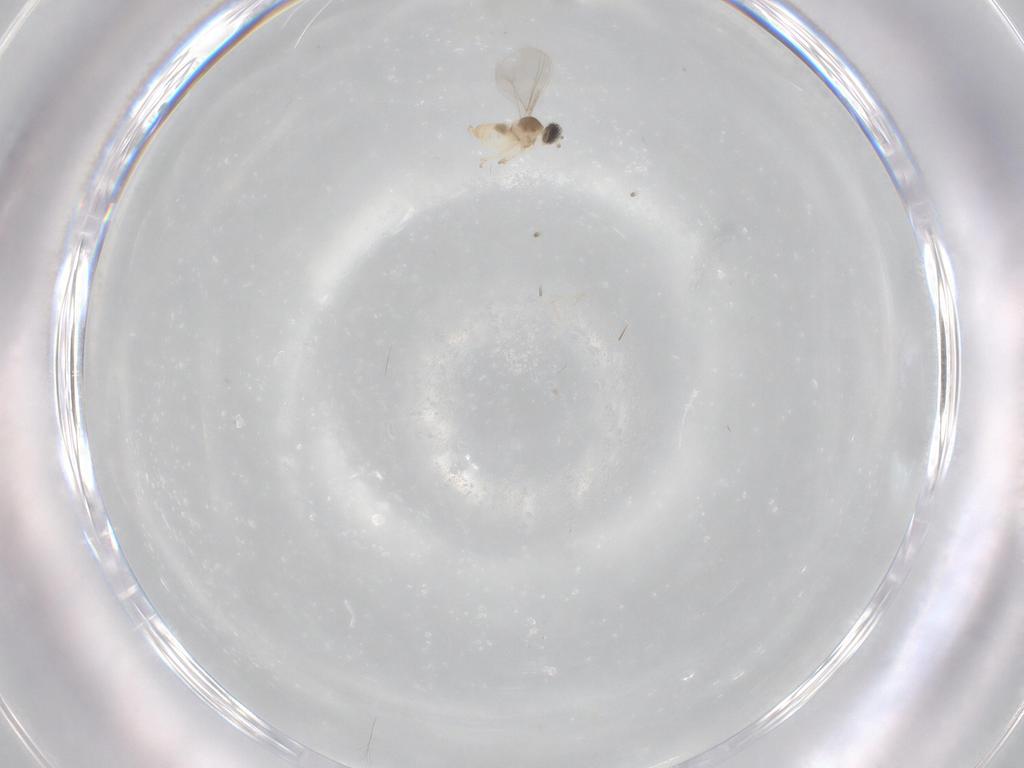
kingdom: Animalia
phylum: Arthropoda
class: Insecta
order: Diptera
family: Cecidomyiidae
